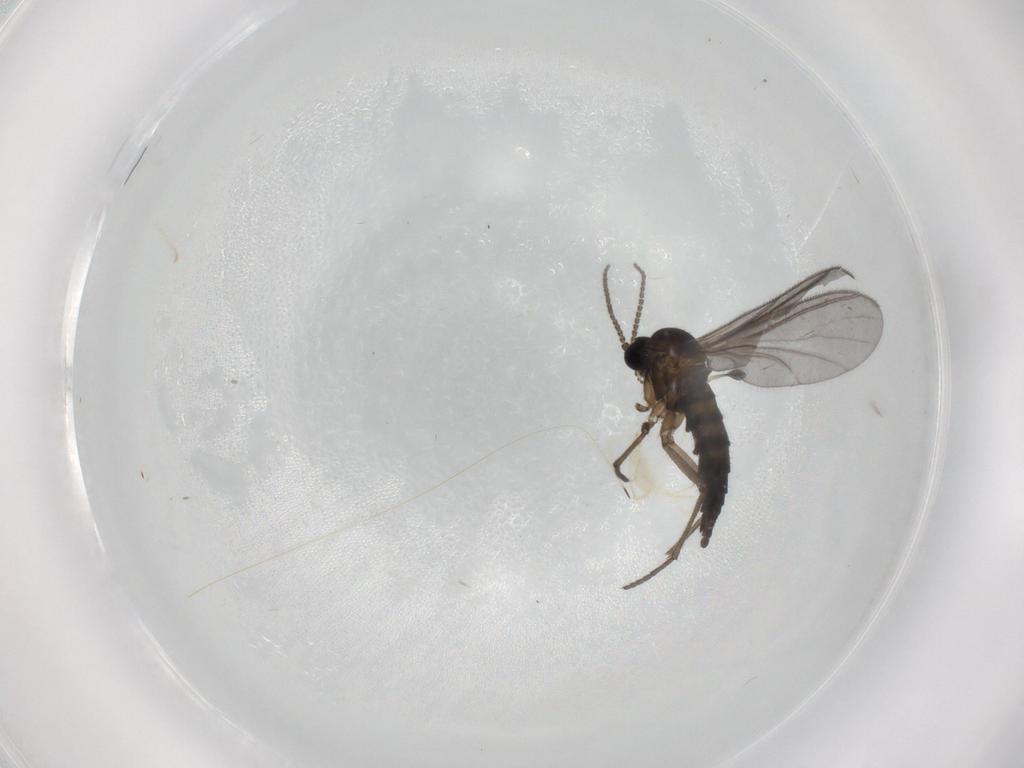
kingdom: Animalia
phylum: Arthropoda
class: Insecta
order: Diptera
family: Sciaridae
